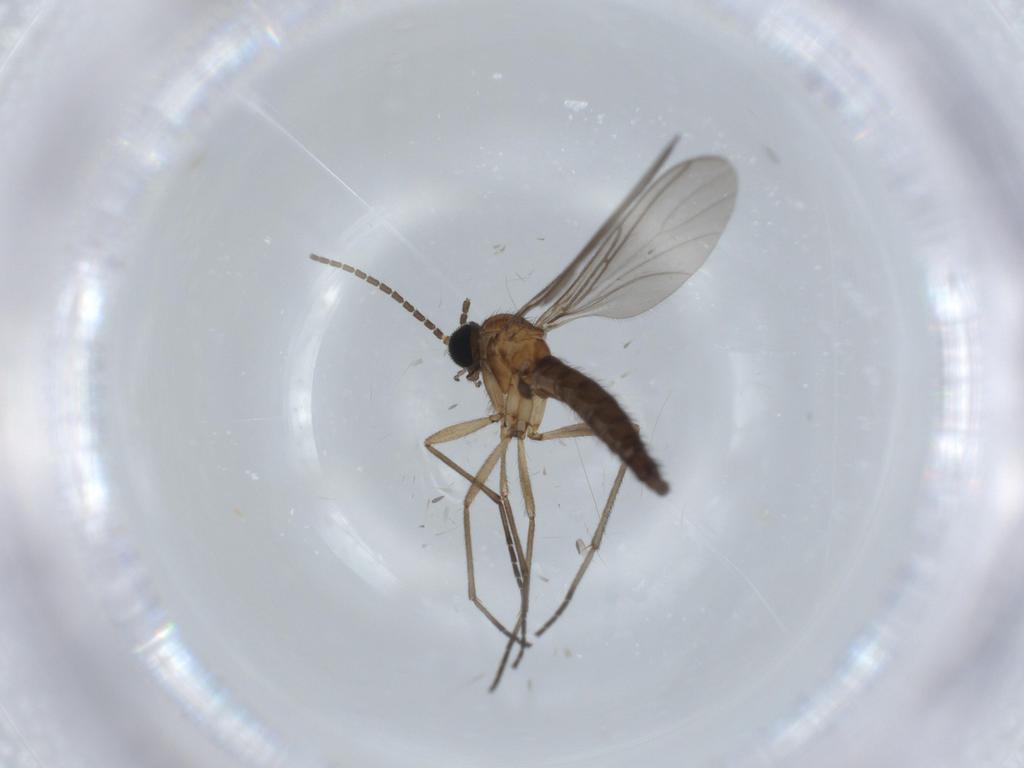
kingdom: Animalia
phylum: Arthropoda
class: Insecta
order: Diptera
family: Sciaridae
